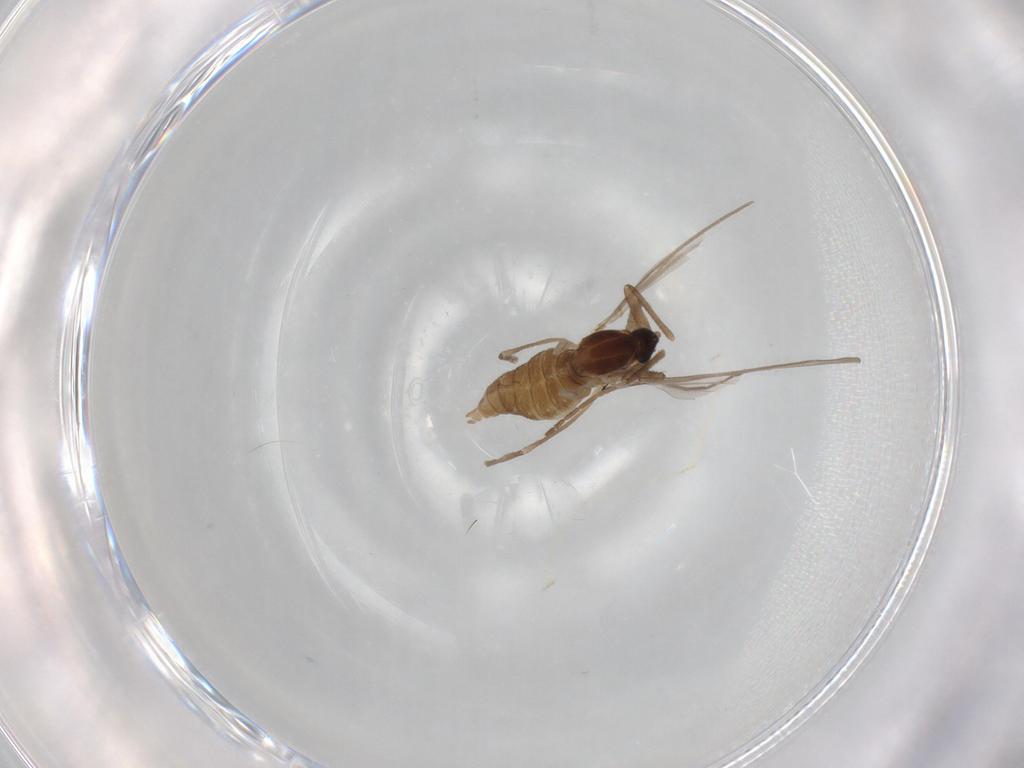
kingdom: Animalia
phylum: Arthropoda
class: Insecta
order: Diptera
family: Cecidomyiidae
